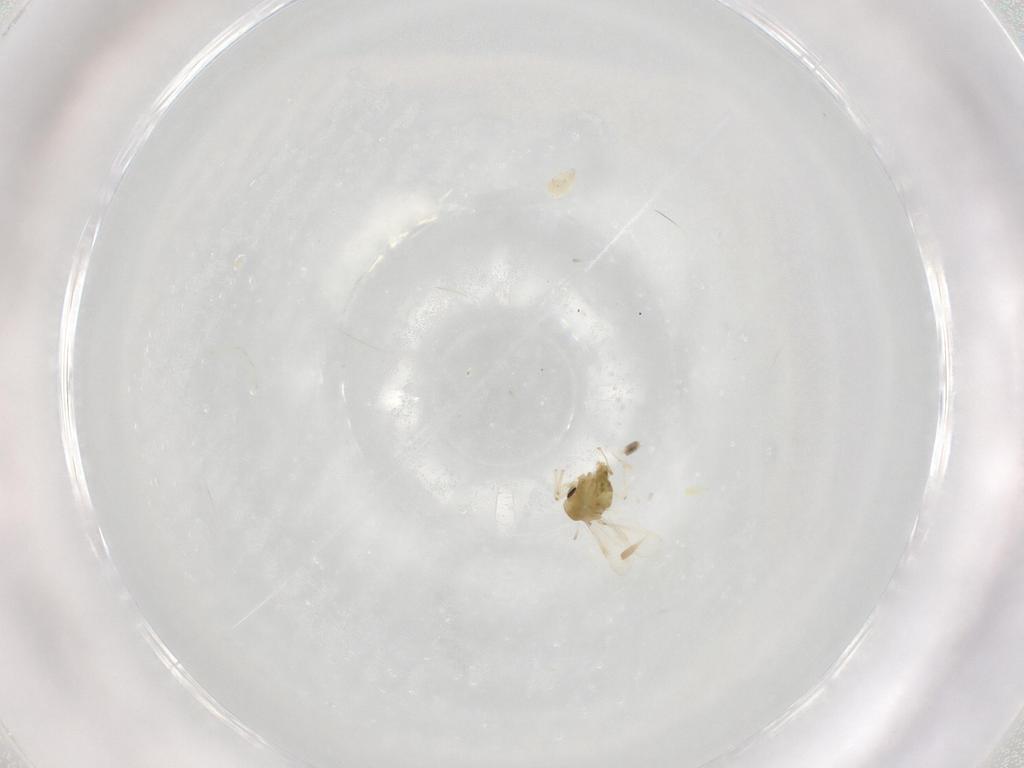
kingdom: Animalia
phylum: Arthropoda
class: Insecta
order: Diptera
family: Chironomidae
